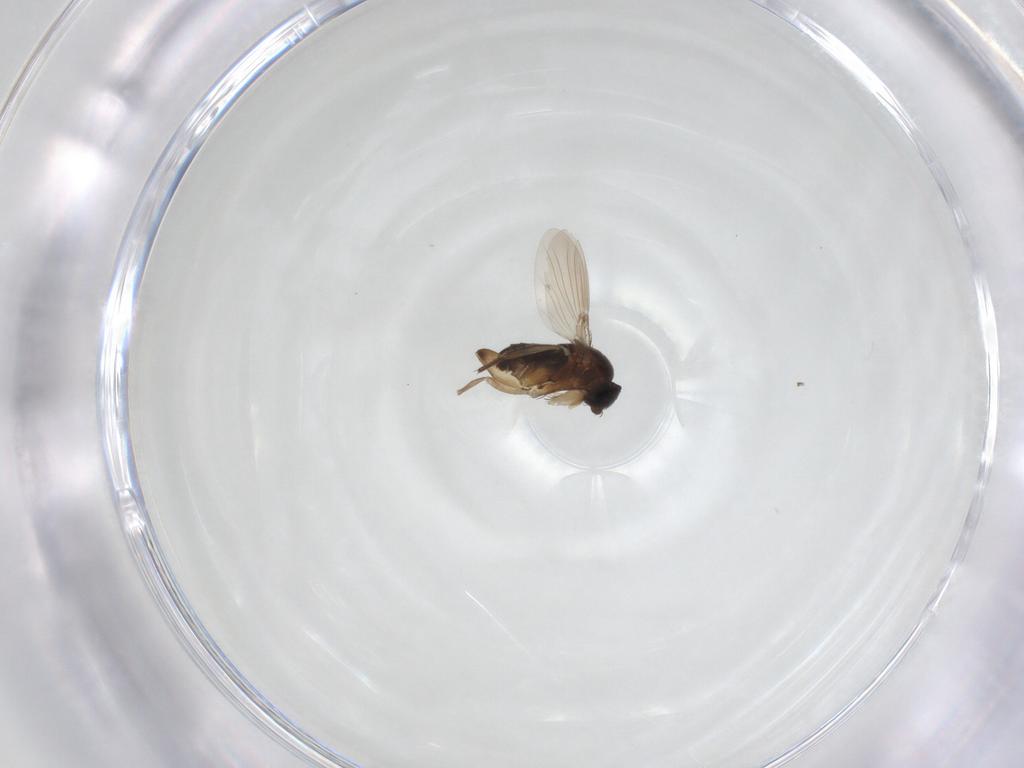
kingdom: Animalia
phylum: Arthropoda
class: Insecta
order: Diptera
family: Phoridae
